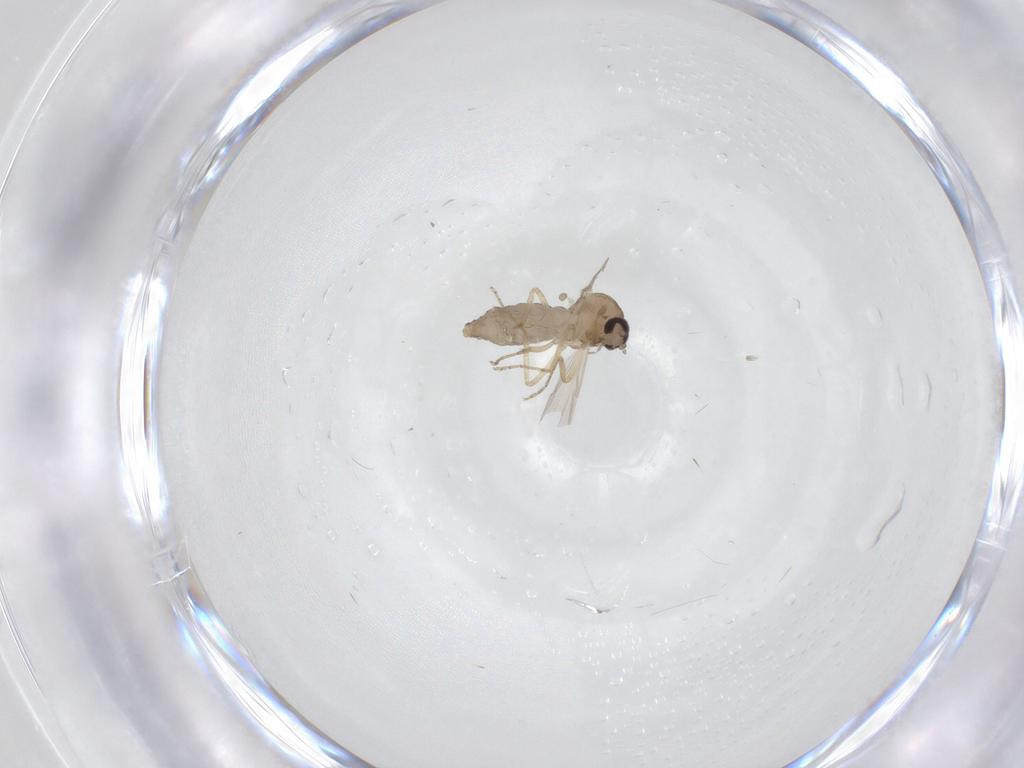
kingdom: Animalia
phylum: Arthropoda
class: Insecta
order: Diptera
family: Ceratopogonidae
